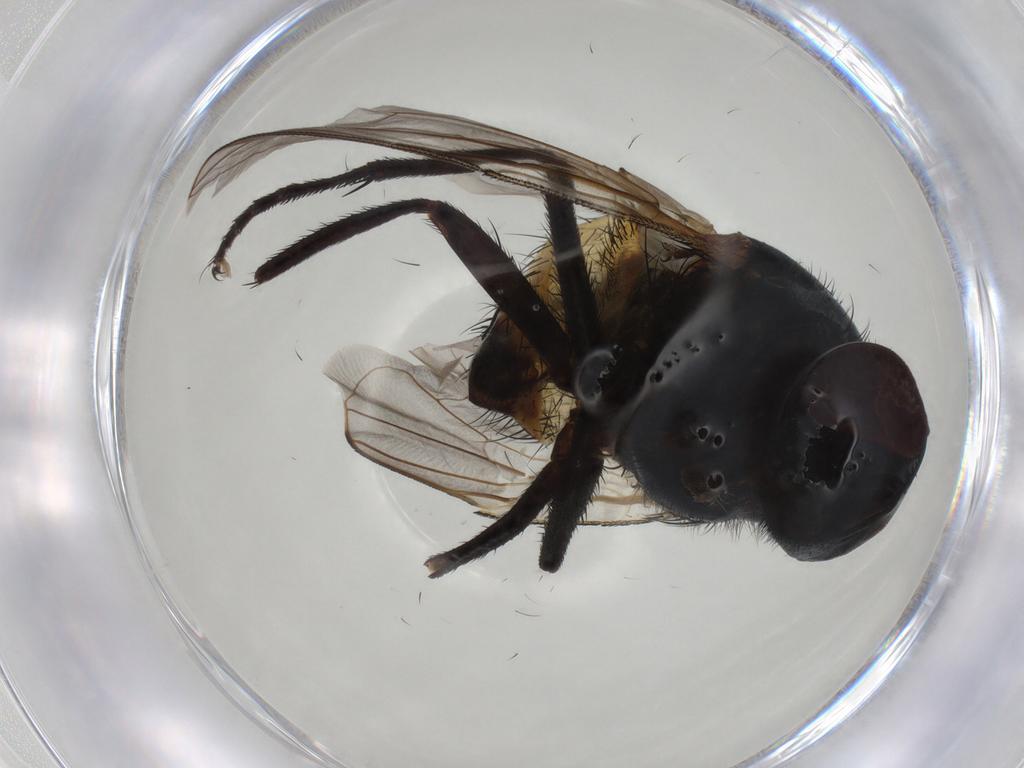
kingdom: Animalia
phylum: Arthropoda
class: Insecta
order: Diptera
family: Muscidae
